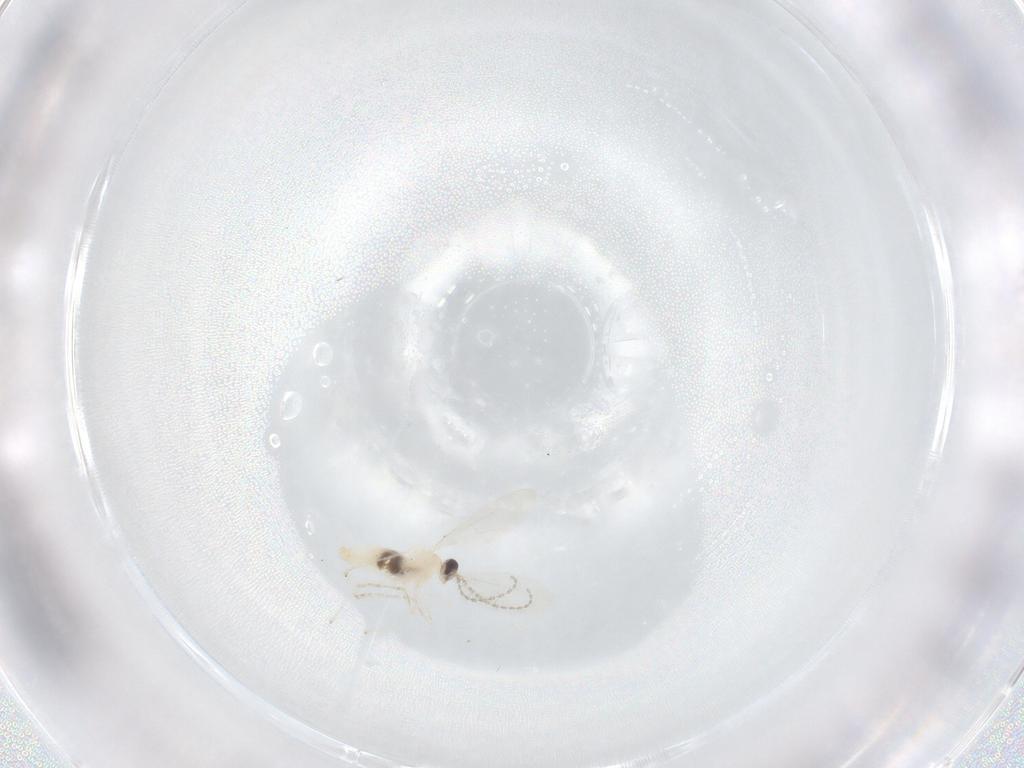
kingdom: Animalia
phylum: Arthropoda
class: Insecta
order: Diptera
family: Cecidomyiidae
